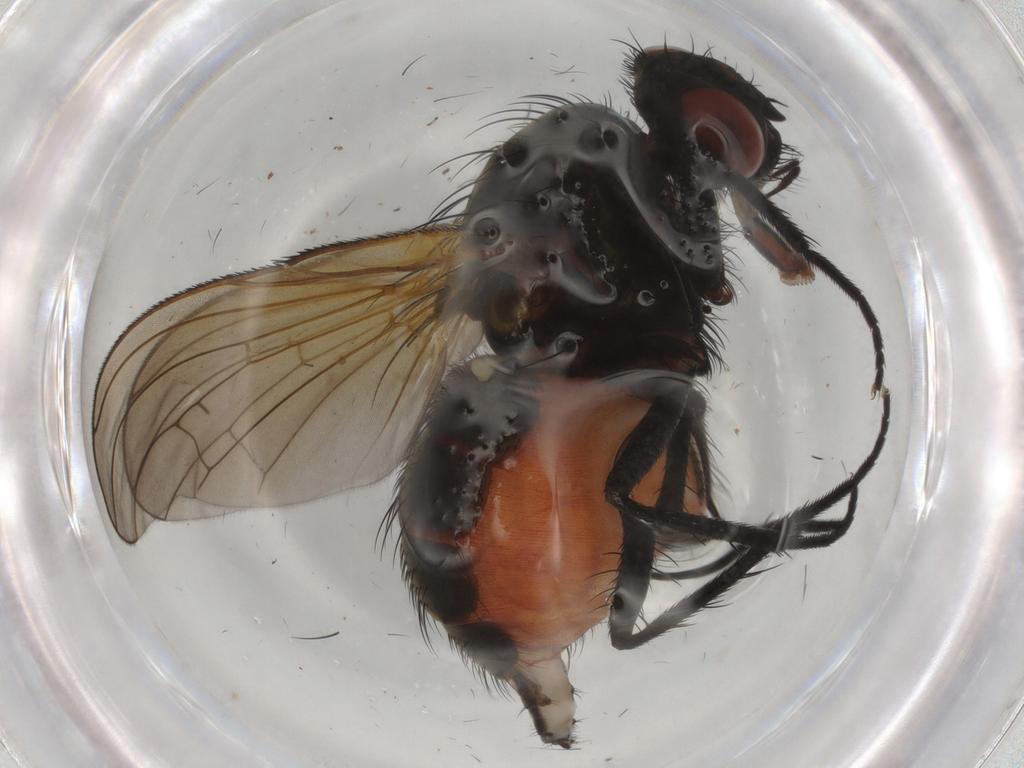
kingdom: Animalia
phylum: Arthropoda
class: Insecta
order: Diptera
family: Anthomyiidae
